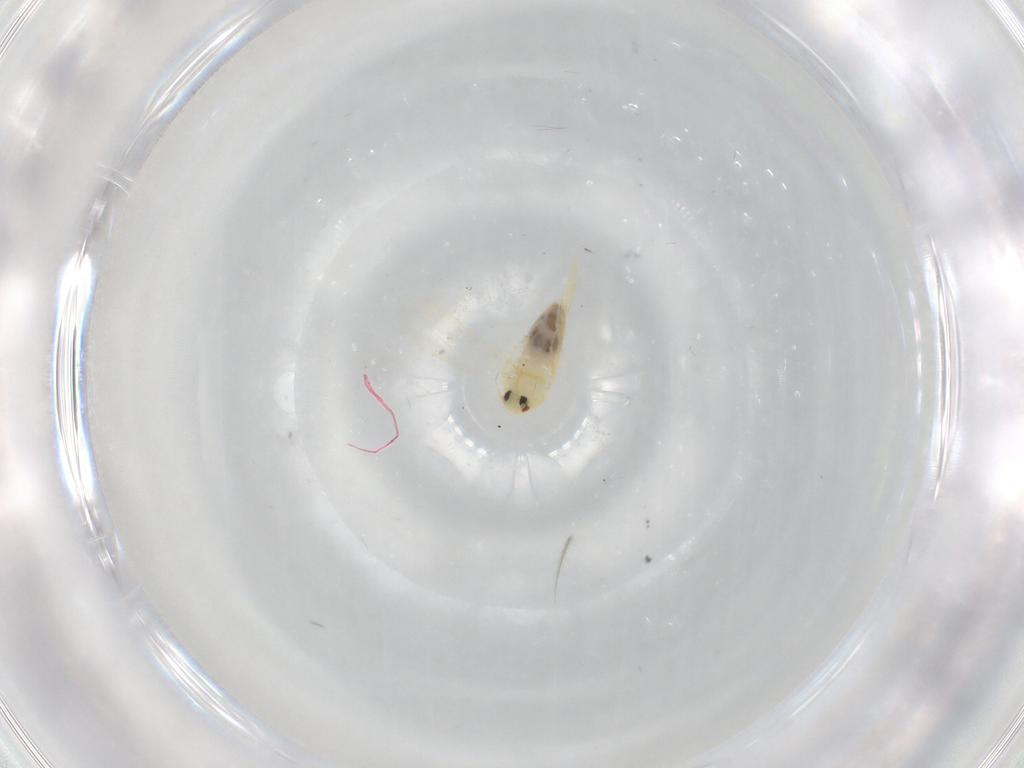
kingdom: Animalia
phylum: Arthropoda
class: Insecta
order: Hemiptera
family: Aleyrodidae
